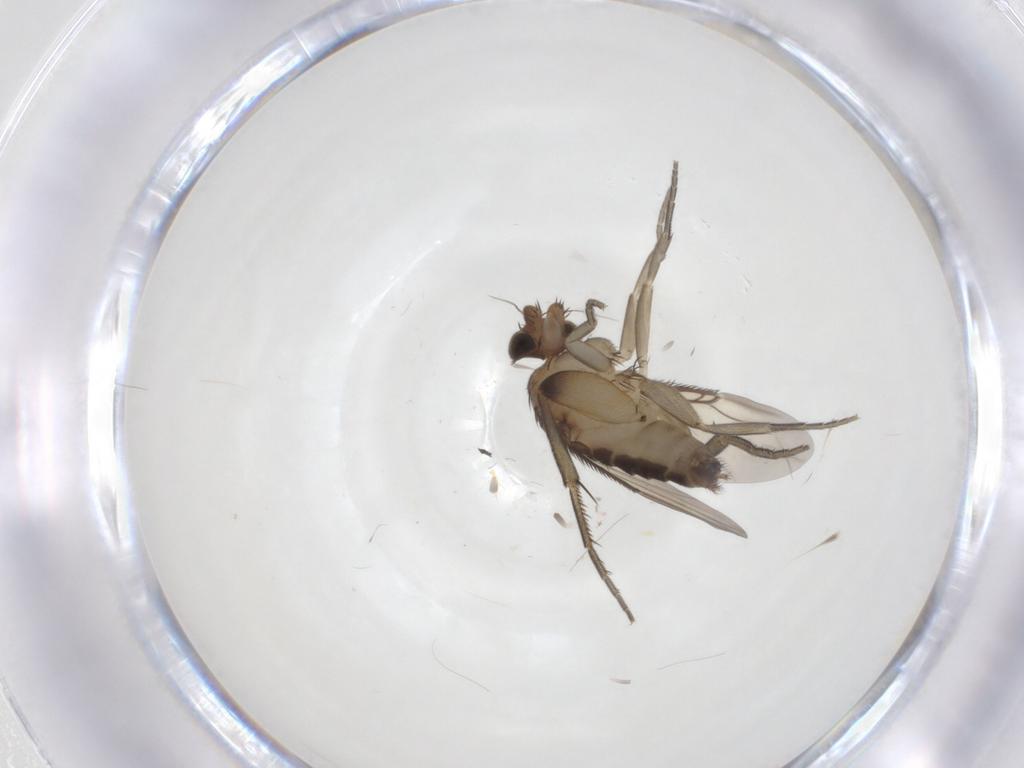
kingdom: Animalia
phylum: Arthropoda
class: Insecta
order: Diptera
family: Phoridae
